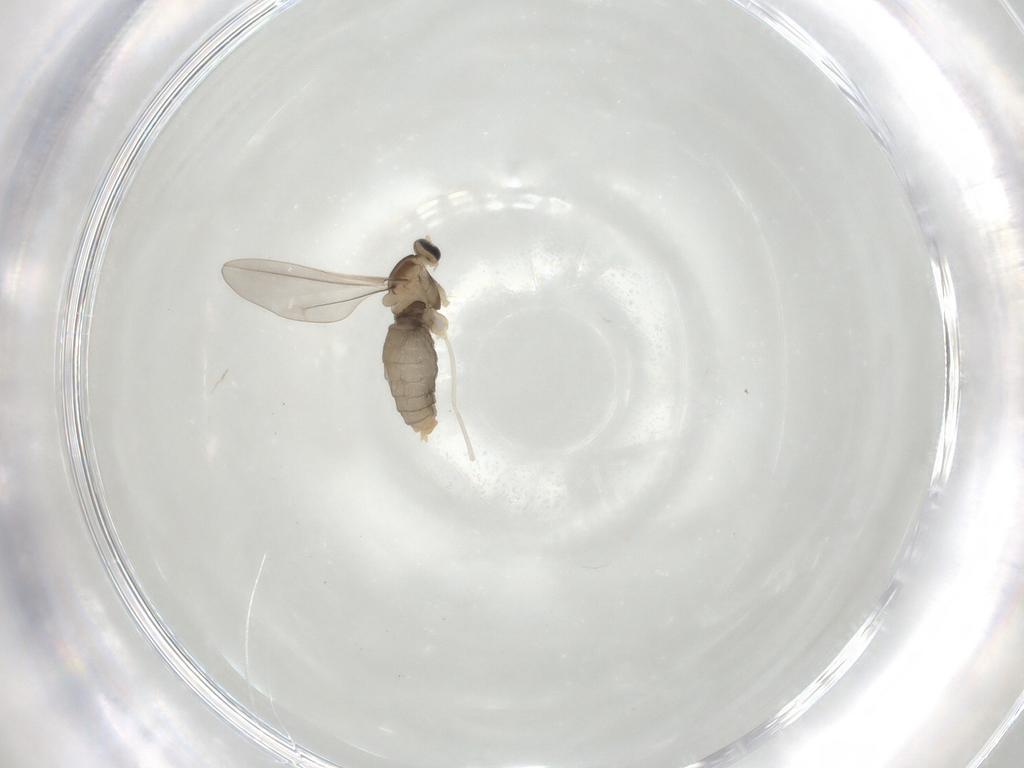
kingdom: Animalia
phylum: Arthropoda
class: Insecta
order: Diptera
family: Cecidomyiidae
